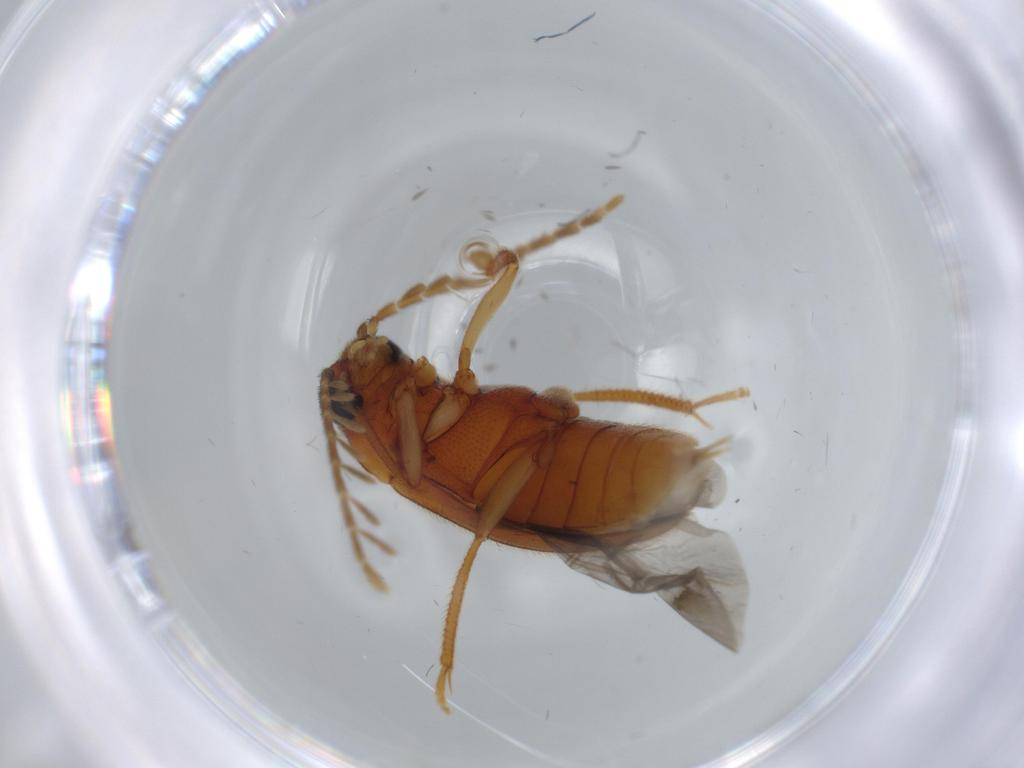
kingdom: Animalia
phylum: Arthropoda
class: Insecta
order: Coleoptera
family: Ptilodactylidae
